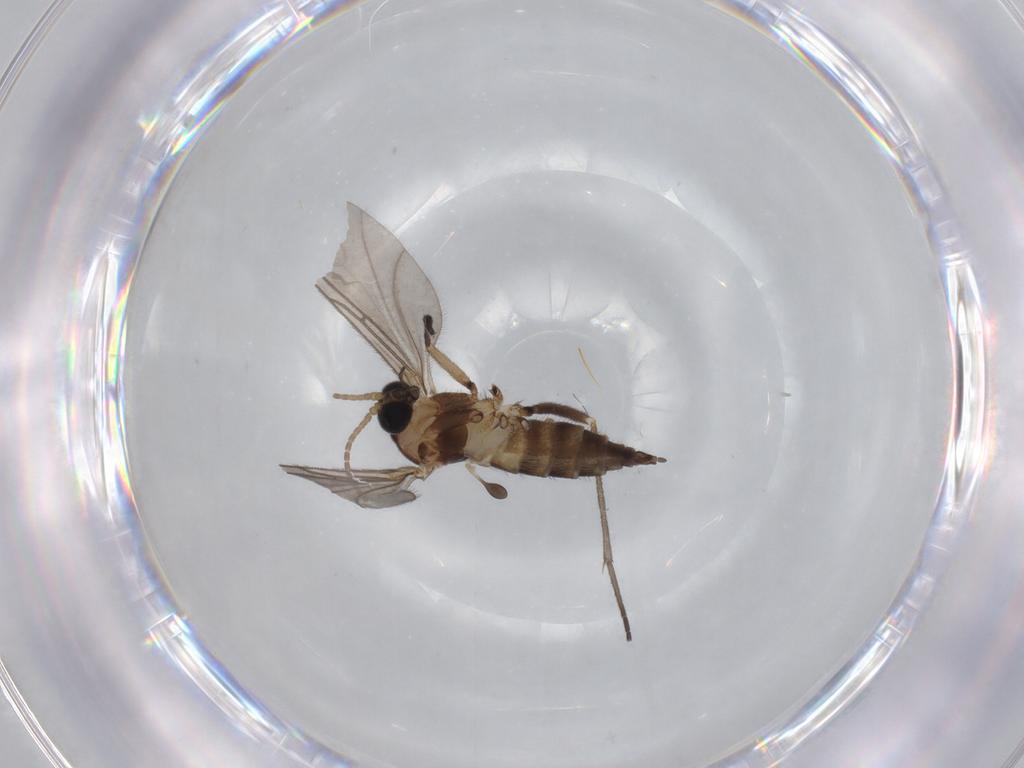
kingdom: Animalia
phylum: Arthropoda
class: Insecta
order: Diptera
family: Sciaridae
